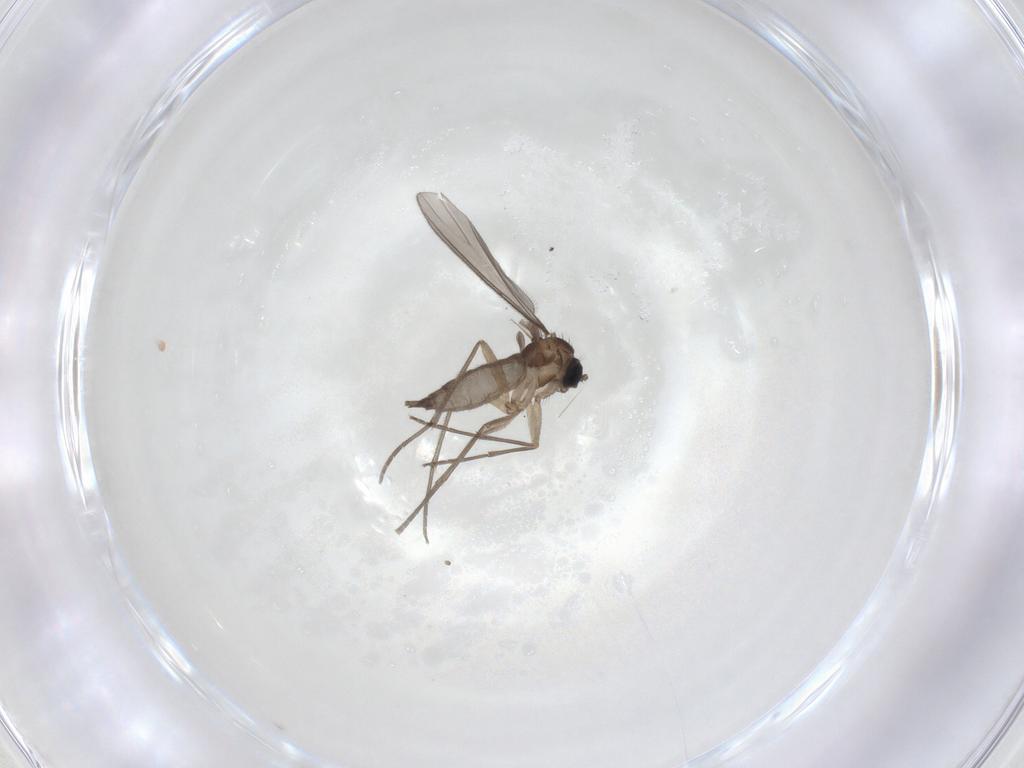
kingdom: Animalia
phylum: Arthropoda
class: Insecta
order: Diptera
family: Sciaridae
